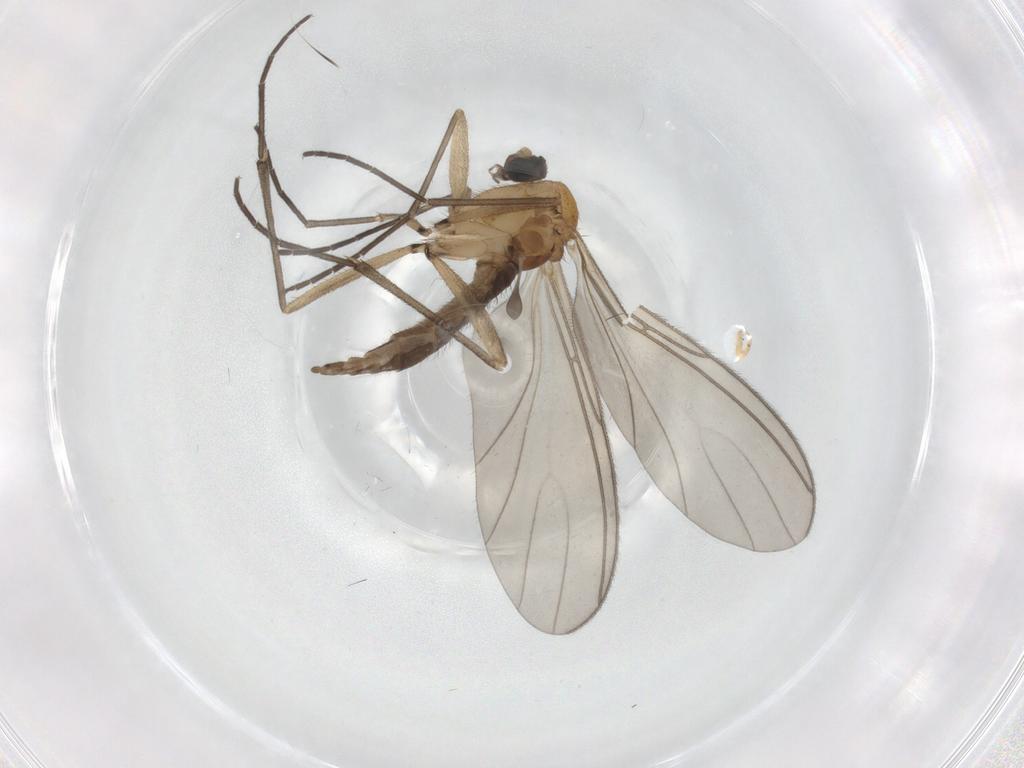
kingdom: Animalia
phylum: Arthropoda
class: Insecta
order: Diptera
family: Sciaridae
